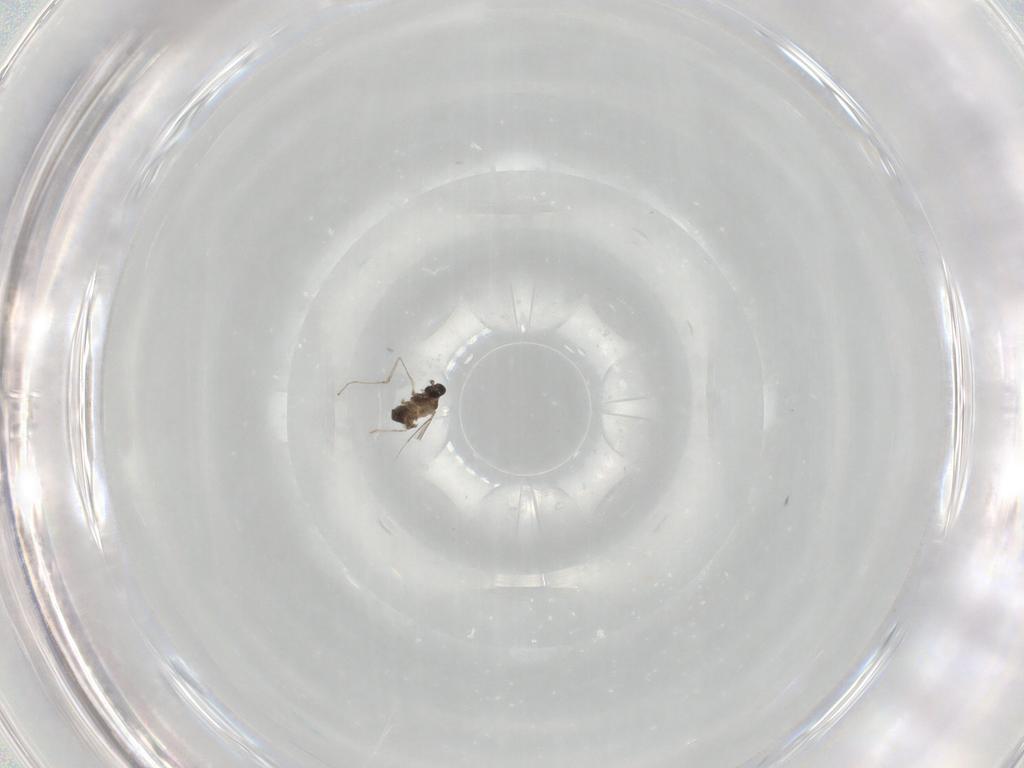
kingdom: Animalia
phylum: Arthropoda
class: Insecta
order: Diptera
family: Cecidomyiidae
